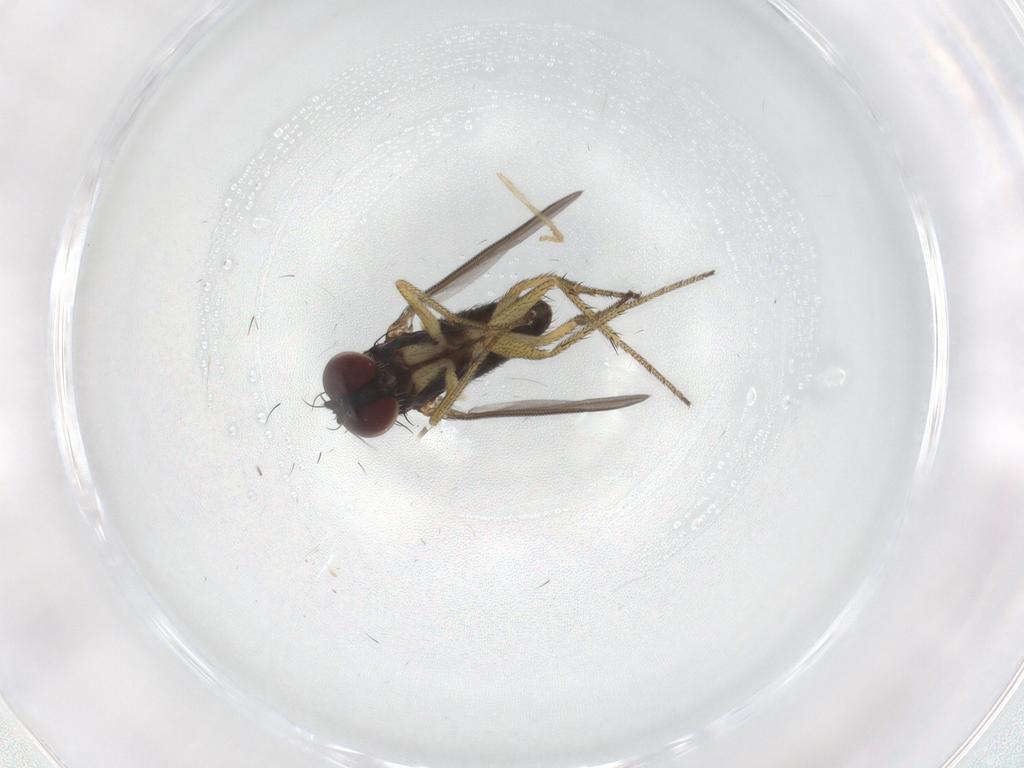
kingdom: Animalia
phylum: Arthropoda
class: Insecta
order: Diptera
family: Chironomidae
